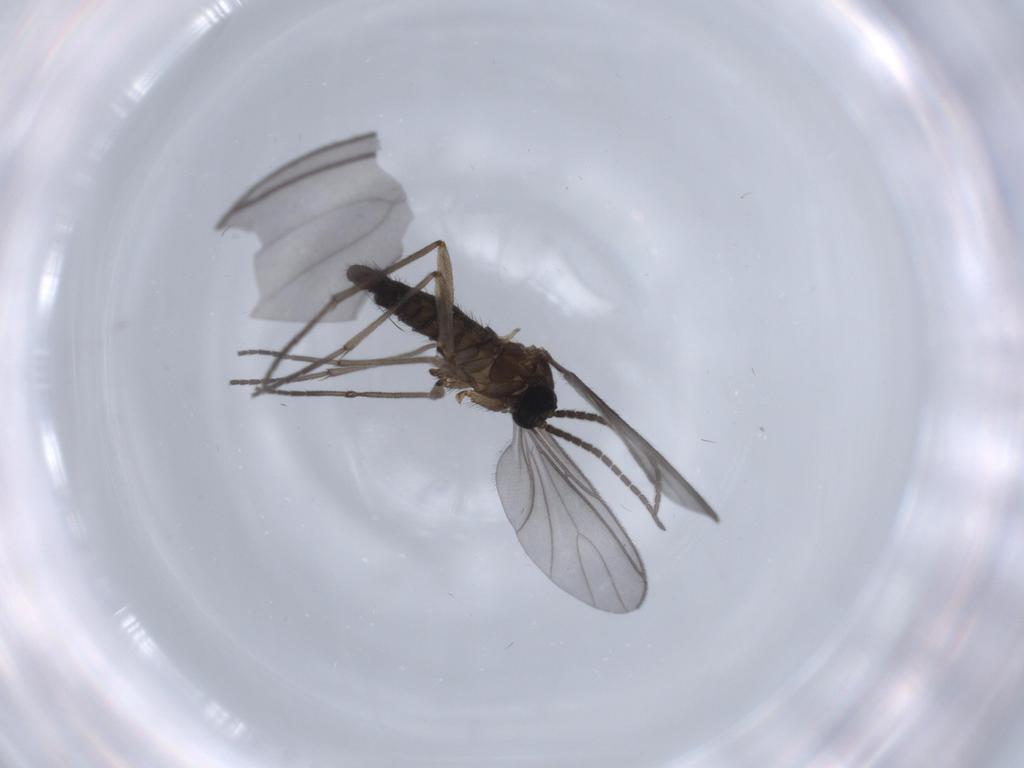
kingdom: Animalia
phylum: Arthropoda
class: Insecta
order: Diptera
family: Sciaridae
